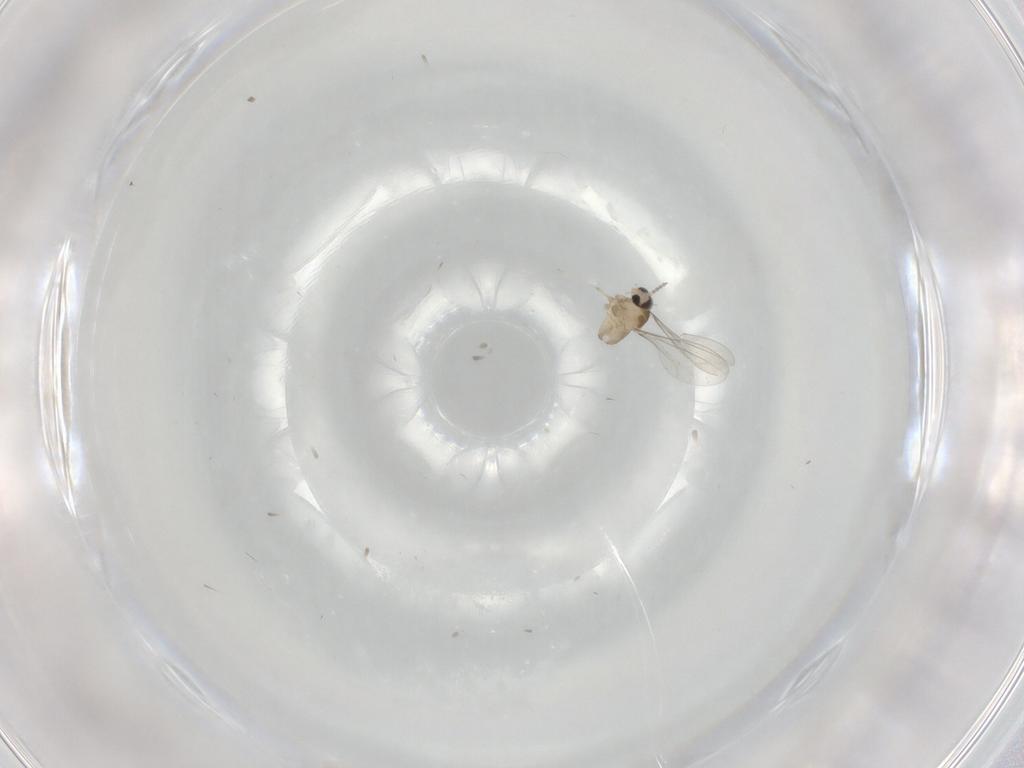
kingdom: Animalia
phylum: Arthropoda
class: Insecta
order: Diptera
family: Cecidomyiidae
